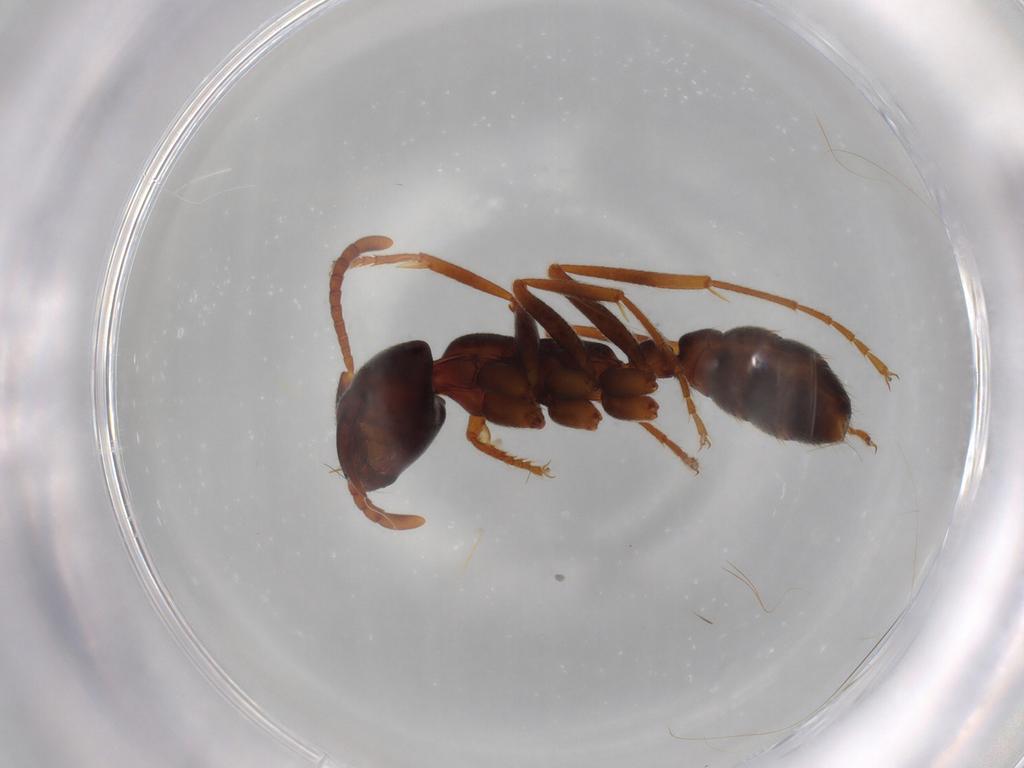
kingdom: Animalia
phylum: Arthropoda
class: Insecta
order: Hymenoptera
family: Formicidae
